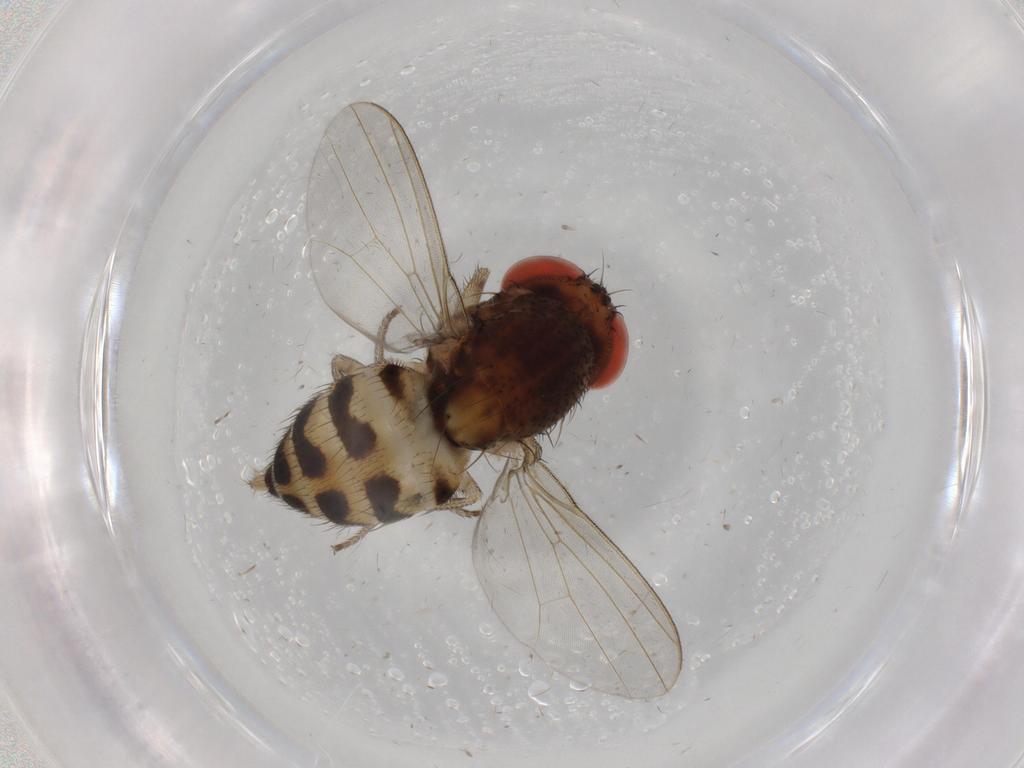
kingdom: Animalia
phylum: Arthropoda
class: Insecta
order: Diptera
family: Drosophilidae
